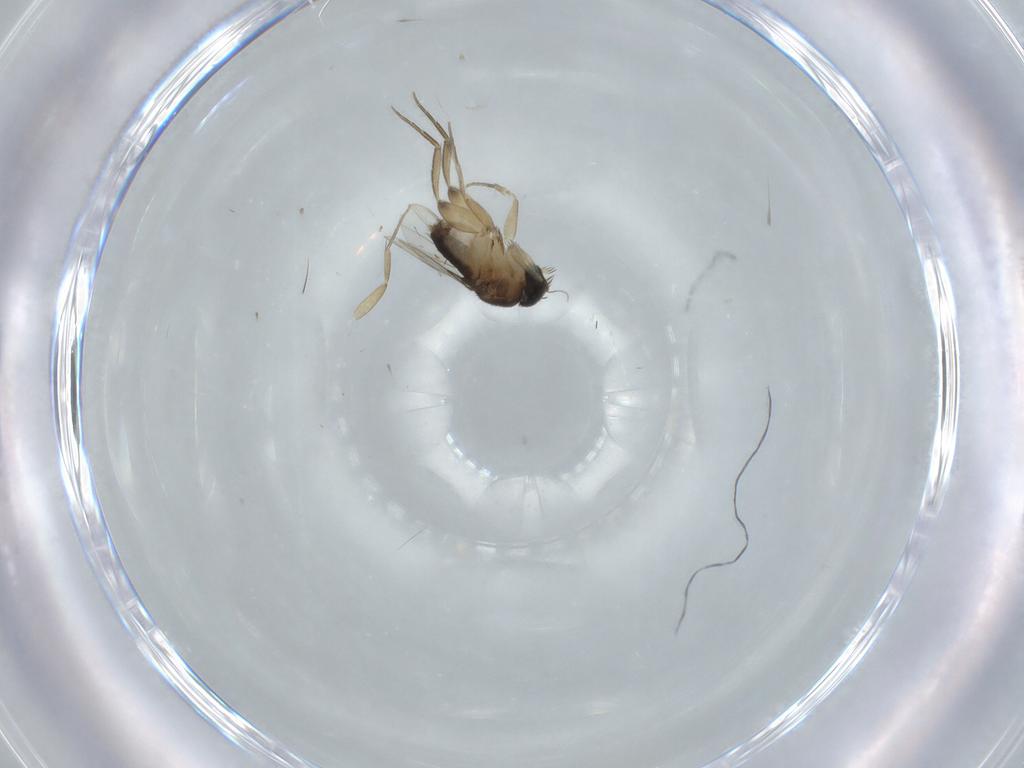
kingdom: Animalia
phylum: Arthropoda
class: Insecta
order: Diptera
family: Phoridae
